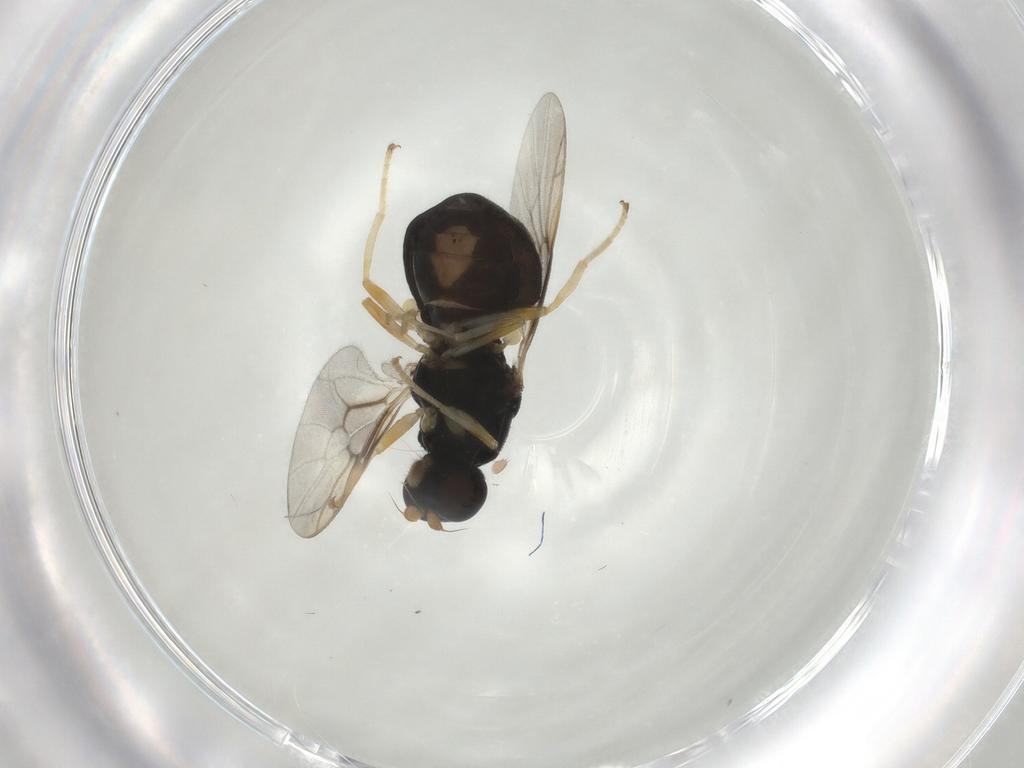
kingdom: Animalia
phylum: Arthropoda
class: Insecta
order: Diptera
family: Stratiomyidae
